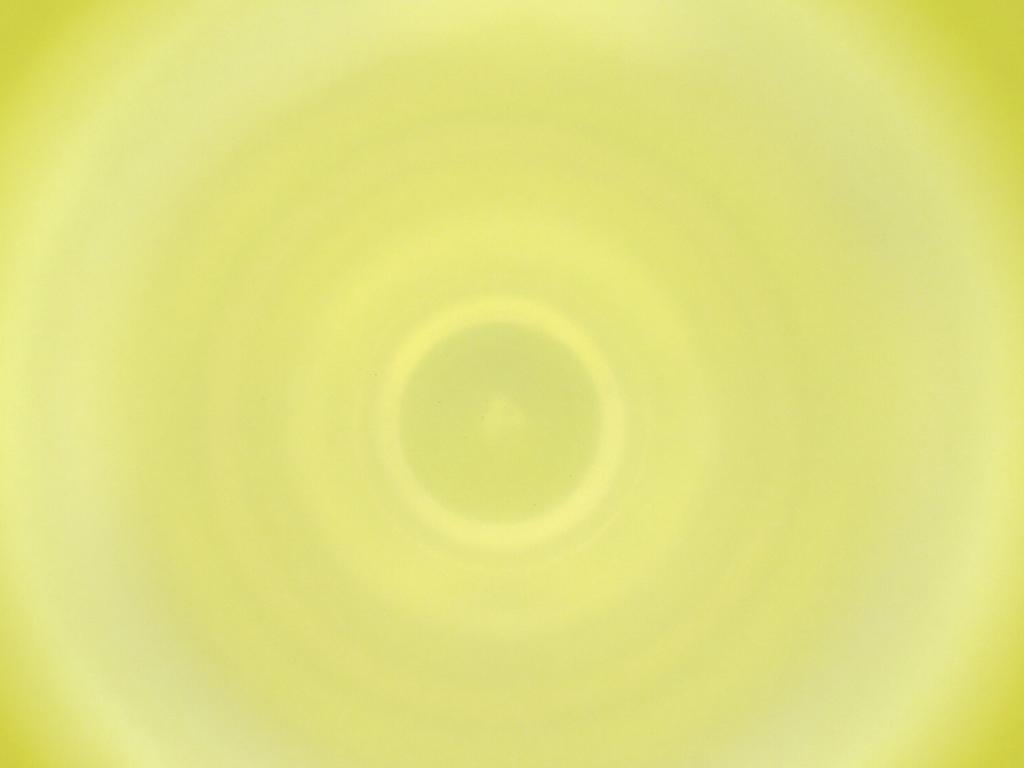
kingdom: Animalia
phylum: Arthropoda
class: Insecta
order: Diptera
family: Cecidomyiidae
